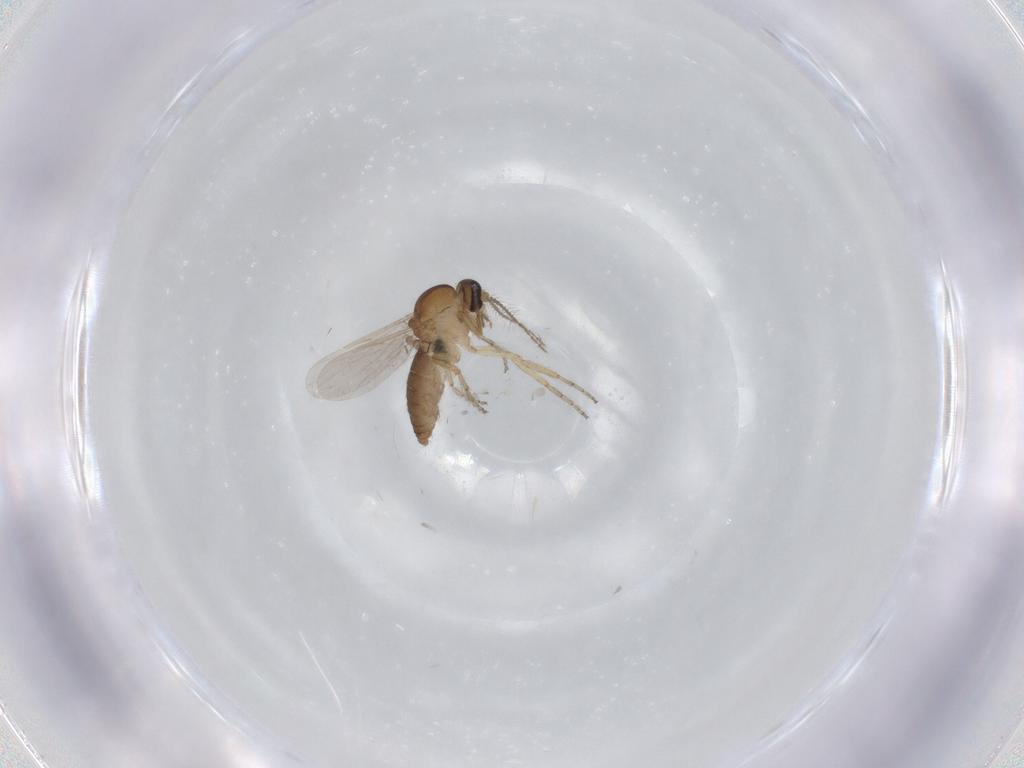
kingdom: Animalia
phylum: Arthropoda
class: Insecta
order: Diptera
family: Ceratopogonidae
